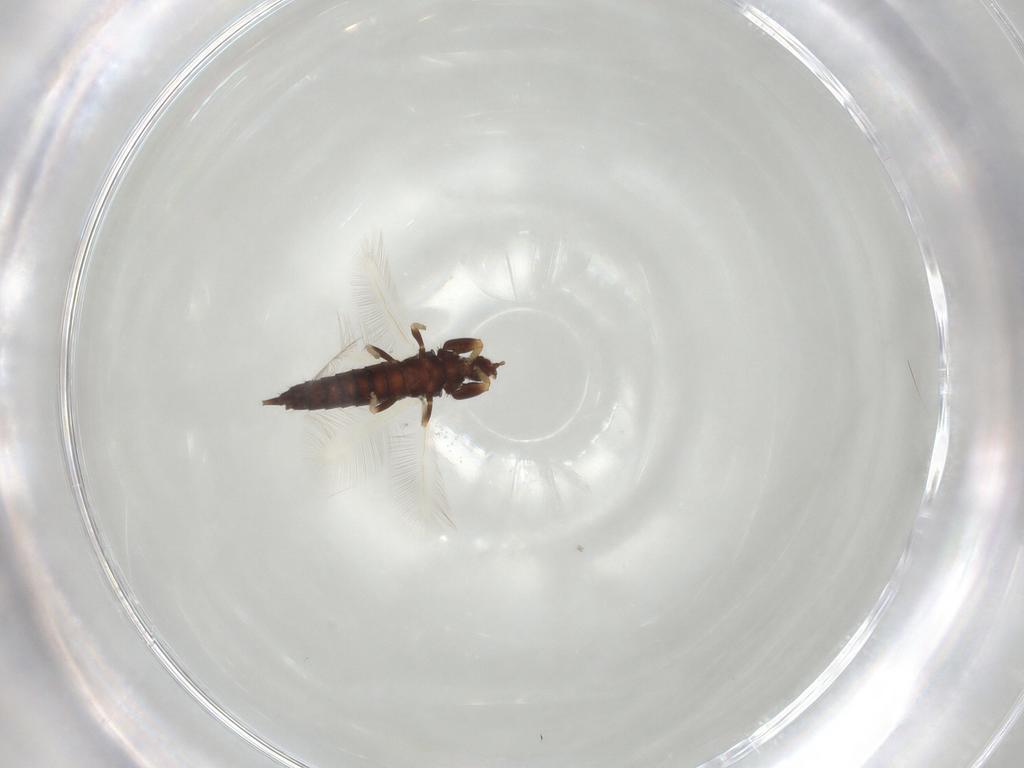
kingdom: Animalia
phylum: Arthropoda
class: Insecta
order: Thysanoptera
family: Phlaeothripidae
